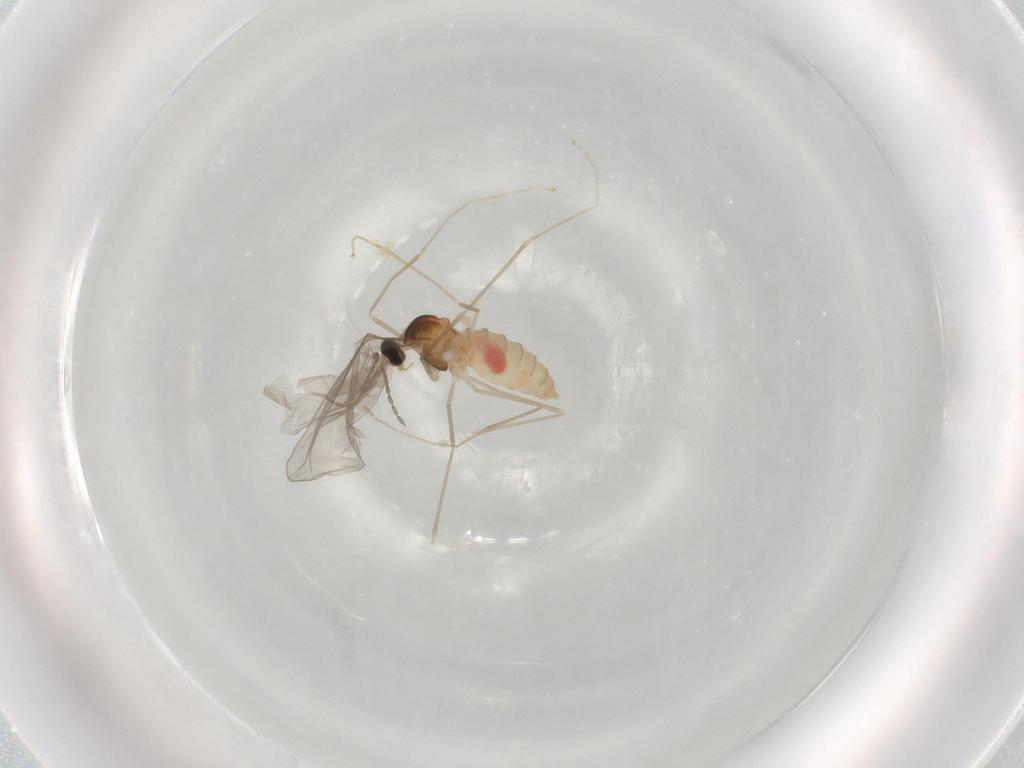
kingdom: Animalia
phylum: Arthropoda
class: Insecta
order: Diptera
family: Cecidomyiidae
